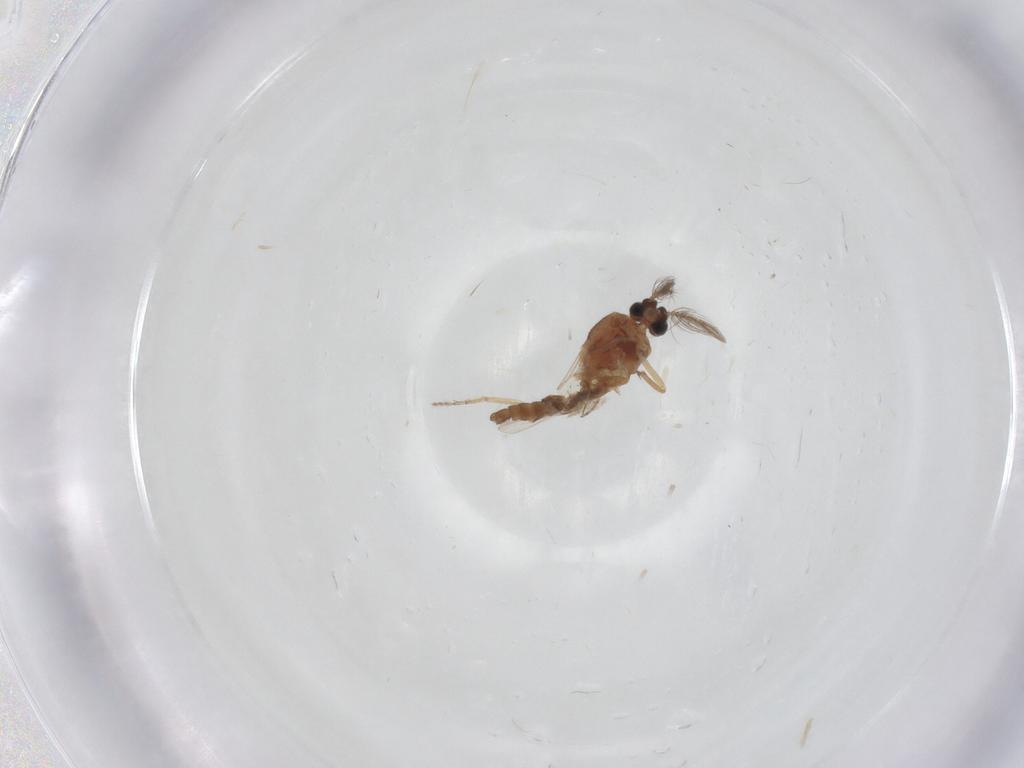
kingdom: Animalia
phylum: Arthropoda
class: Insecta
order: Diptera
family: Ceratopogonidae
